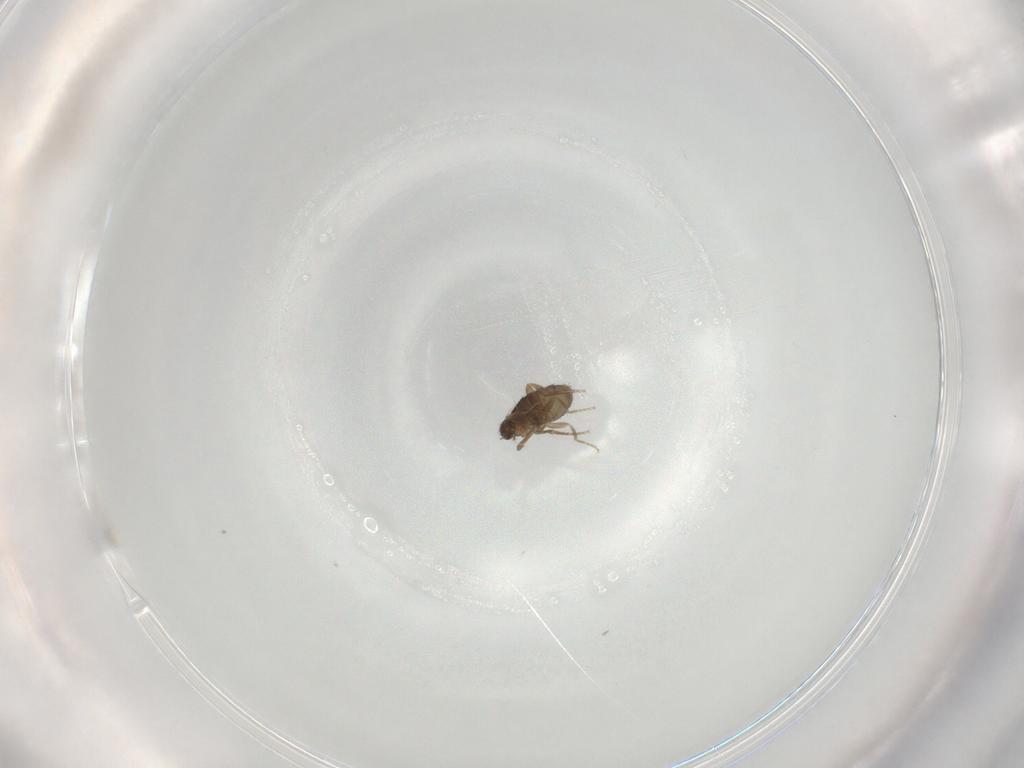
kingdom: Animalia
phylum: Arthropoda
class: Insecta
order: Diptera
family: Phoridae
